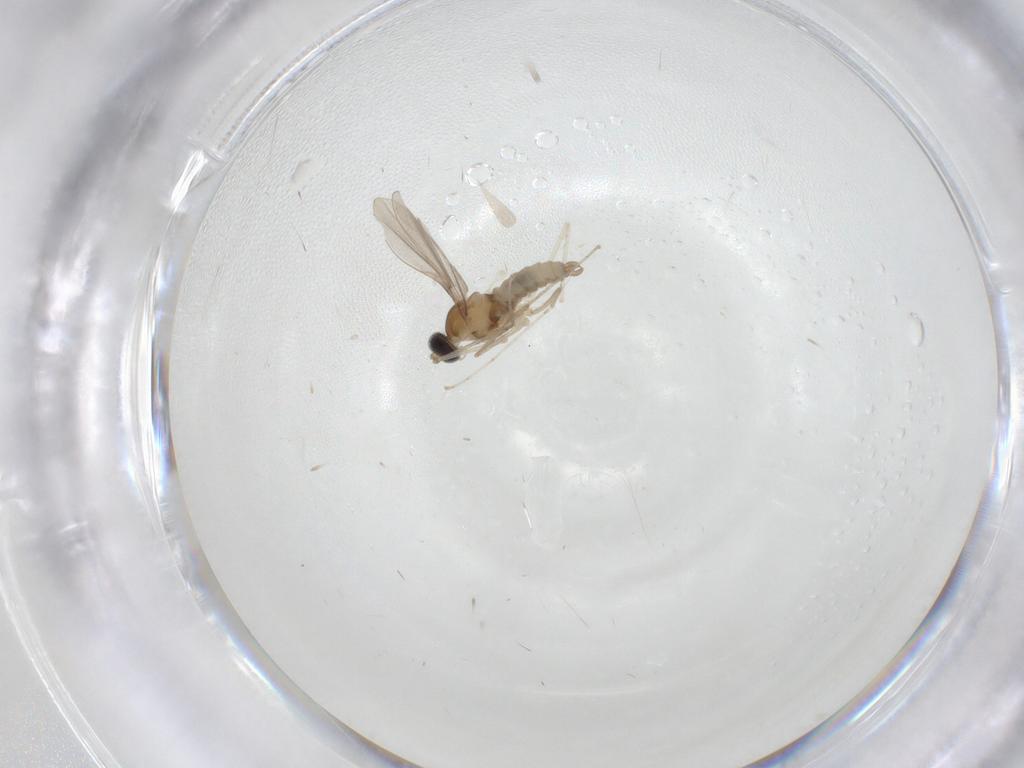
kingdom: Animalia
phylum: Arthropoda
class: Insecta
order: Diptera
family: Cecidomyiidae
